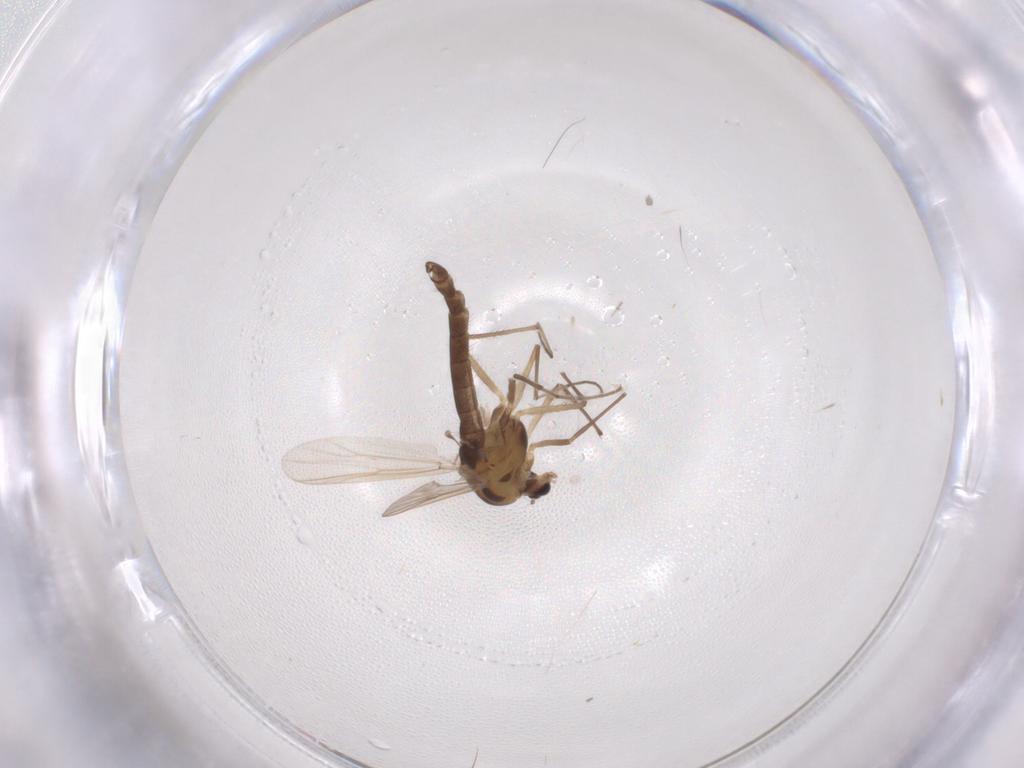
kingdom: Animalia
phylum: Arthropoda
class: Insecta
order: Diptera
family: Chironomidae
